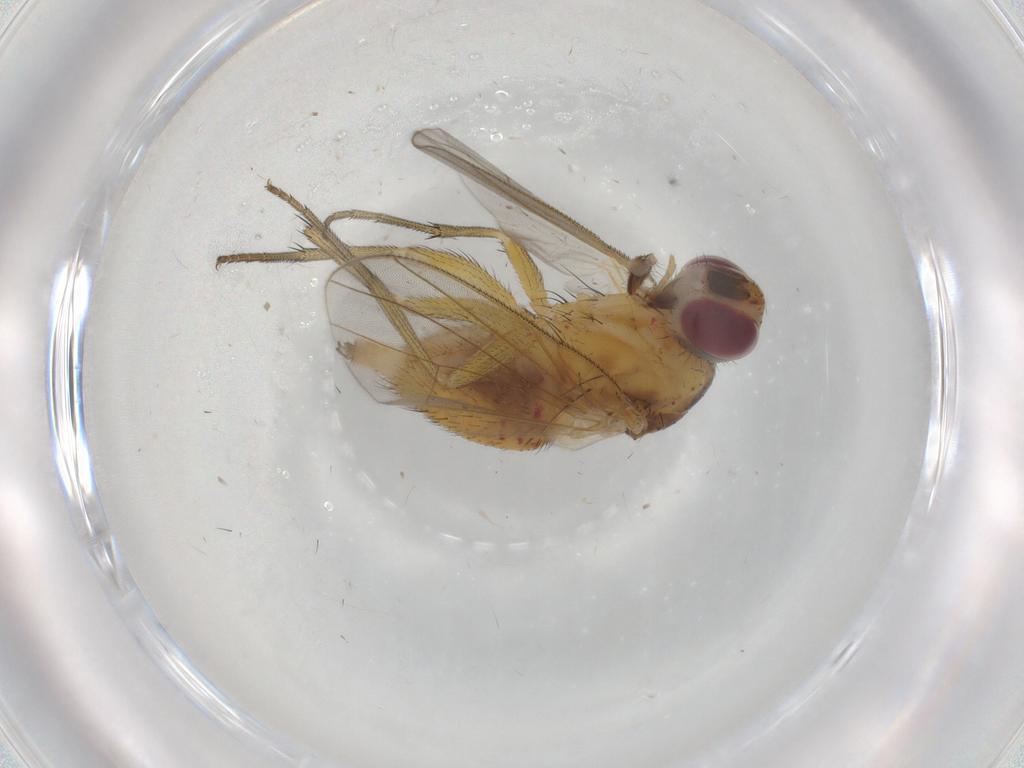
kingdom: Animalia
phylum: Arthropoda
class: Insecta
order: Diptera
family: Muscidae
